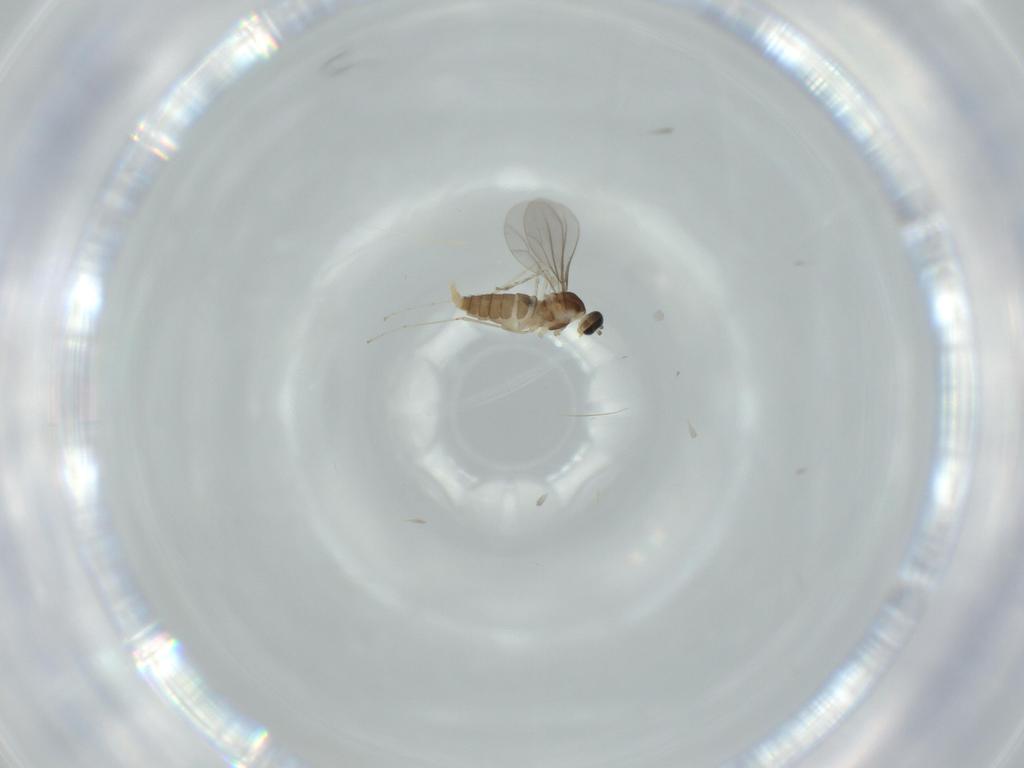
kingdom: Animalia
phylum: Arthropoda
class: Insecta
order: Diptera
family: Cecidomyiidae
